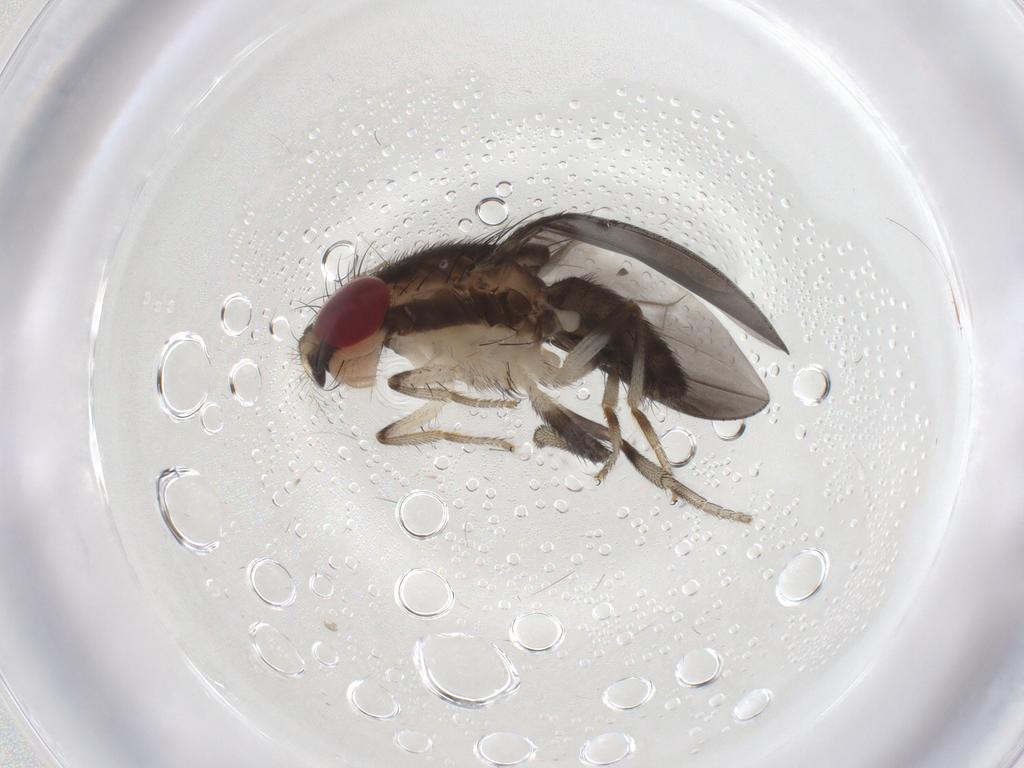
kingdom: Animalia
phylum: Arthropoda
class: Insecta
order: Diptera
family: Drosophilidae
